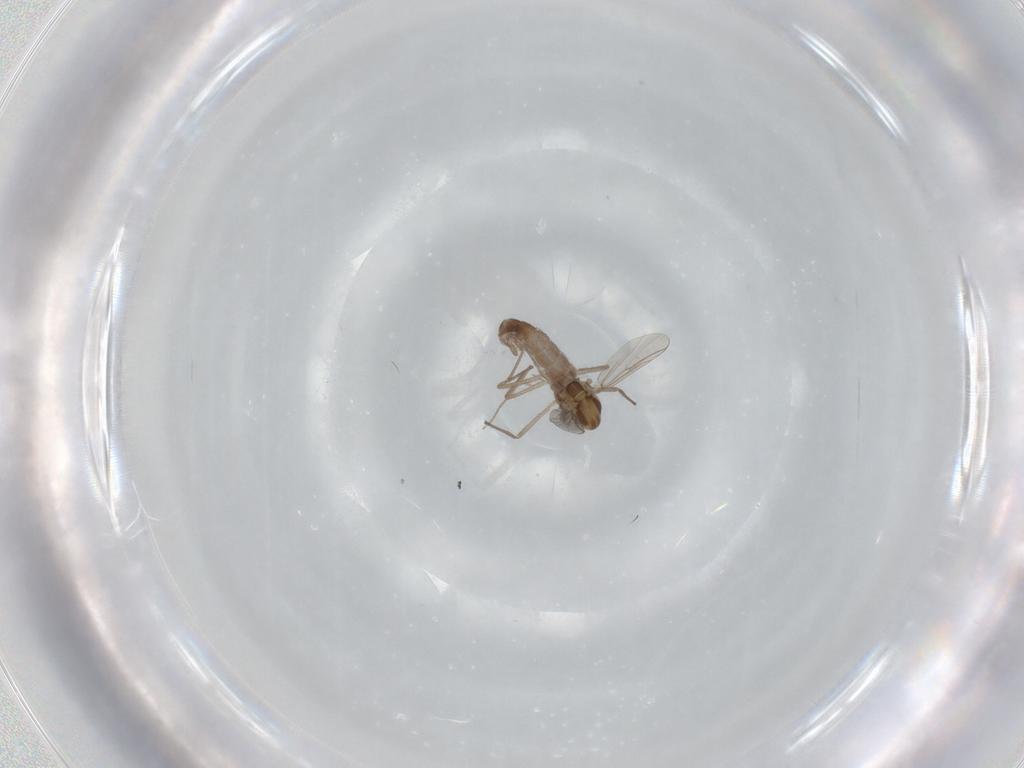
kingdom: Animalia
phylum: Arthropoda
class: Insecta
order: Diptera
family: Chironomidae
